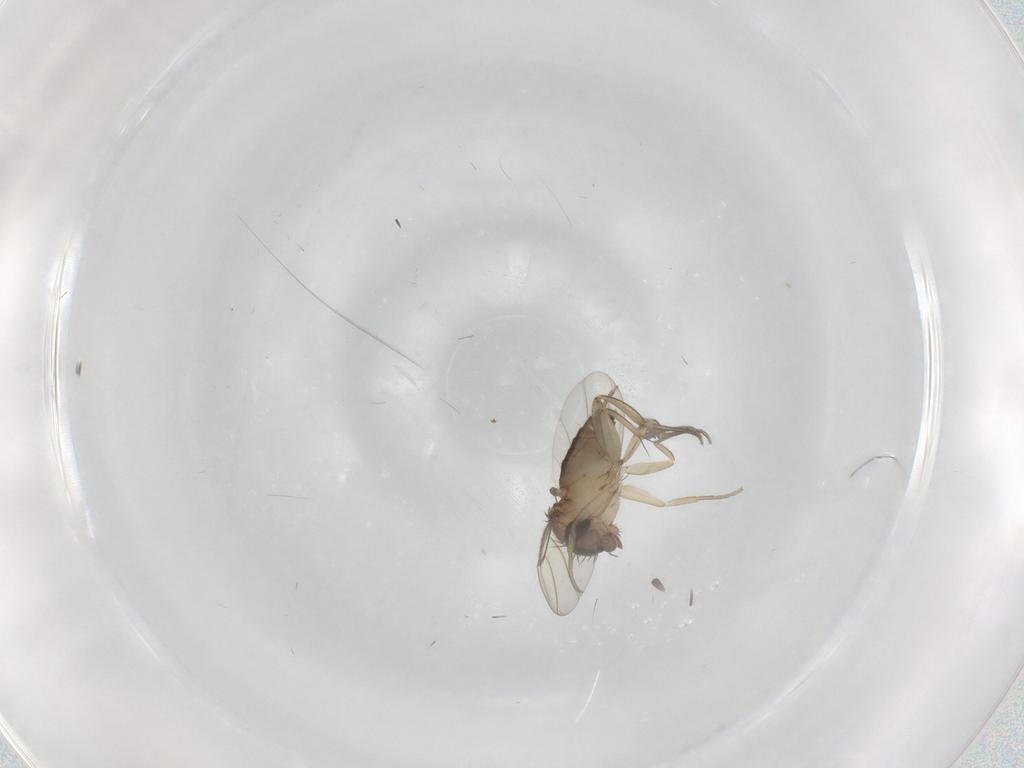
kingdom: Animalia
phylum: Arthropoda
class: Insecta
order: Diptera
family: Phoridae
